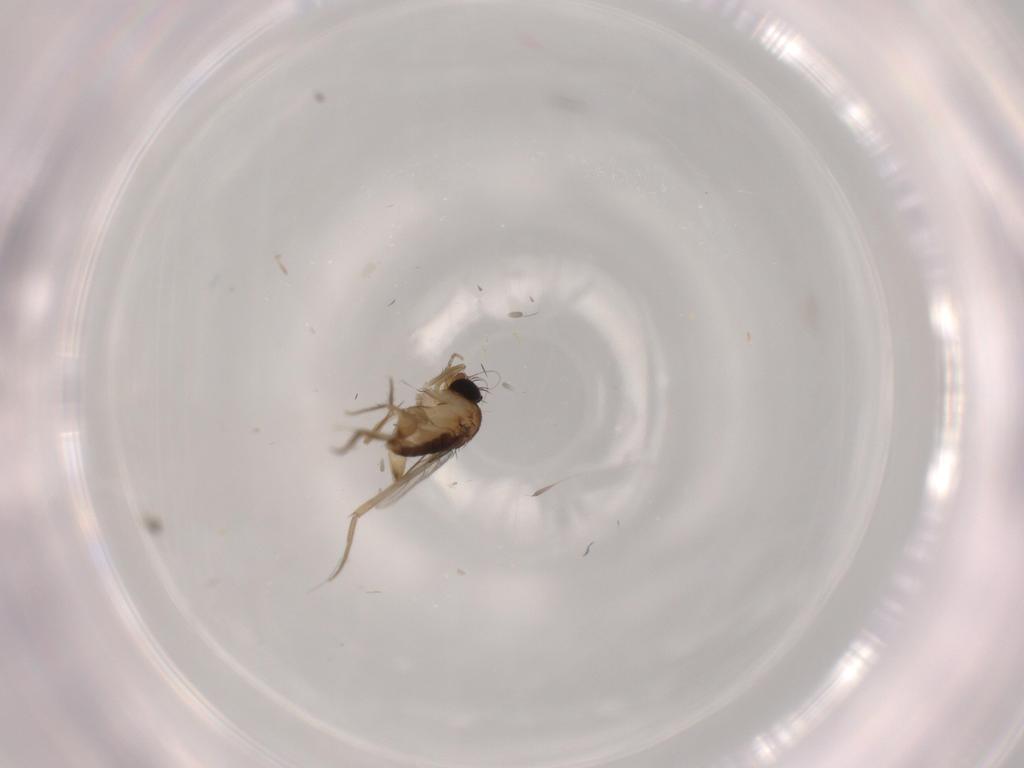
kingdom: Animalia
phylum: Arthropoda
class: Insecta
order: Diptera
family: Phoridae
